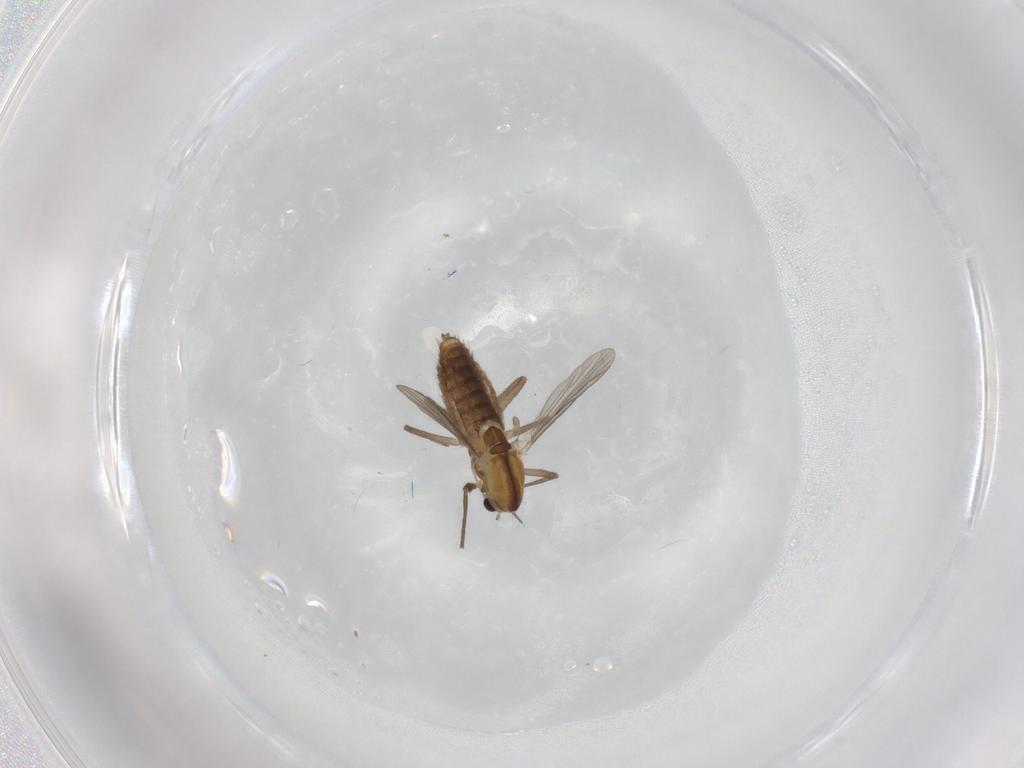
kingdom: Animalia
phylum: Arthropoda
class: Insecta
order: Diptera
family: Chironomidae
